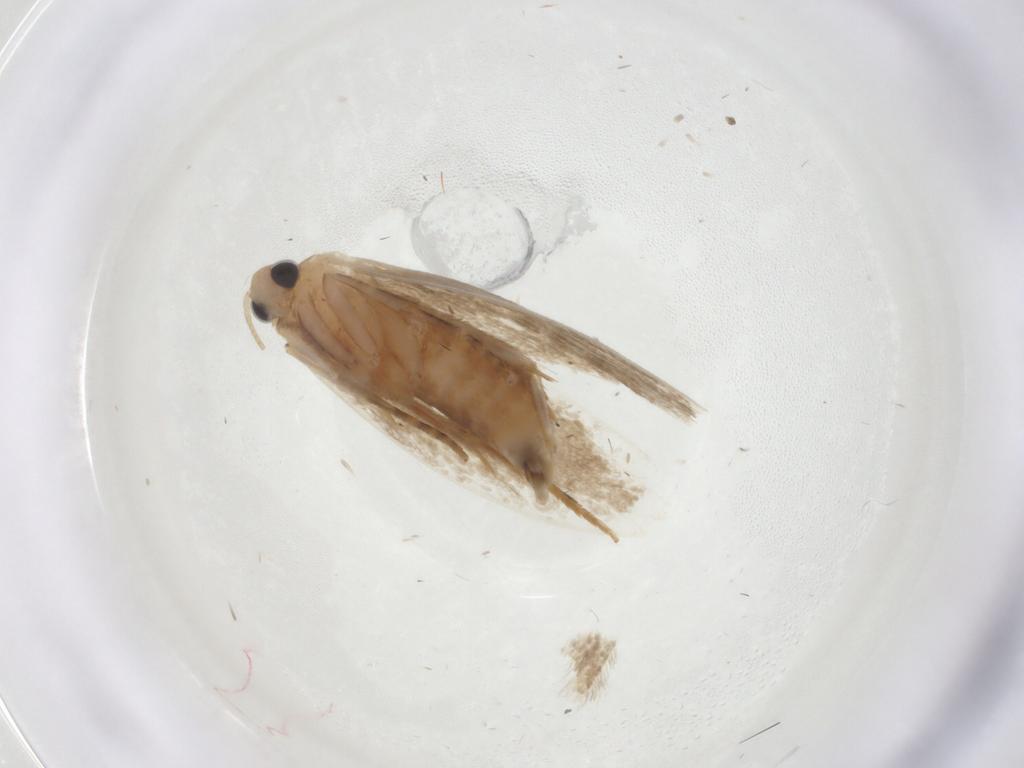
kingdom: Animalia
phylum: Arthropoda
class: Insecta
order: Lepidoptera
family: Tineidae
